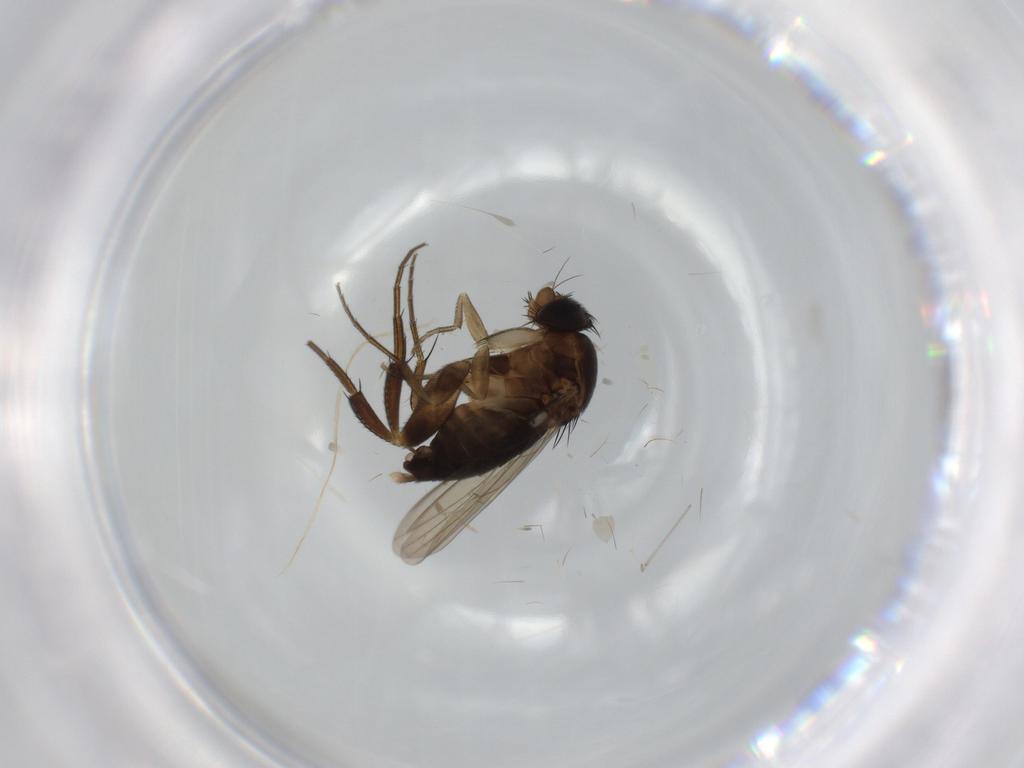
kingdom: Animalia
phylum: Arthropoda
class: Insecta
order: Diptera
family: Phoridae
